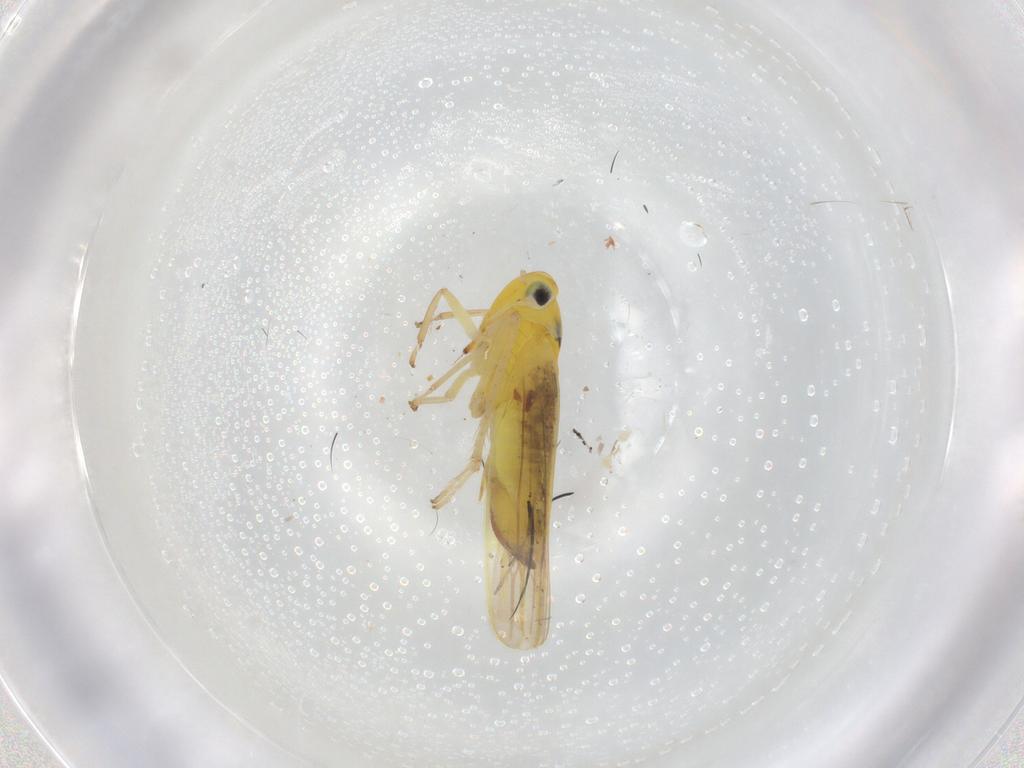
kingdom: Animalia
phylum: Arthropoda
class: Insecta
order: Hemiptera
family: Cicadellidae
